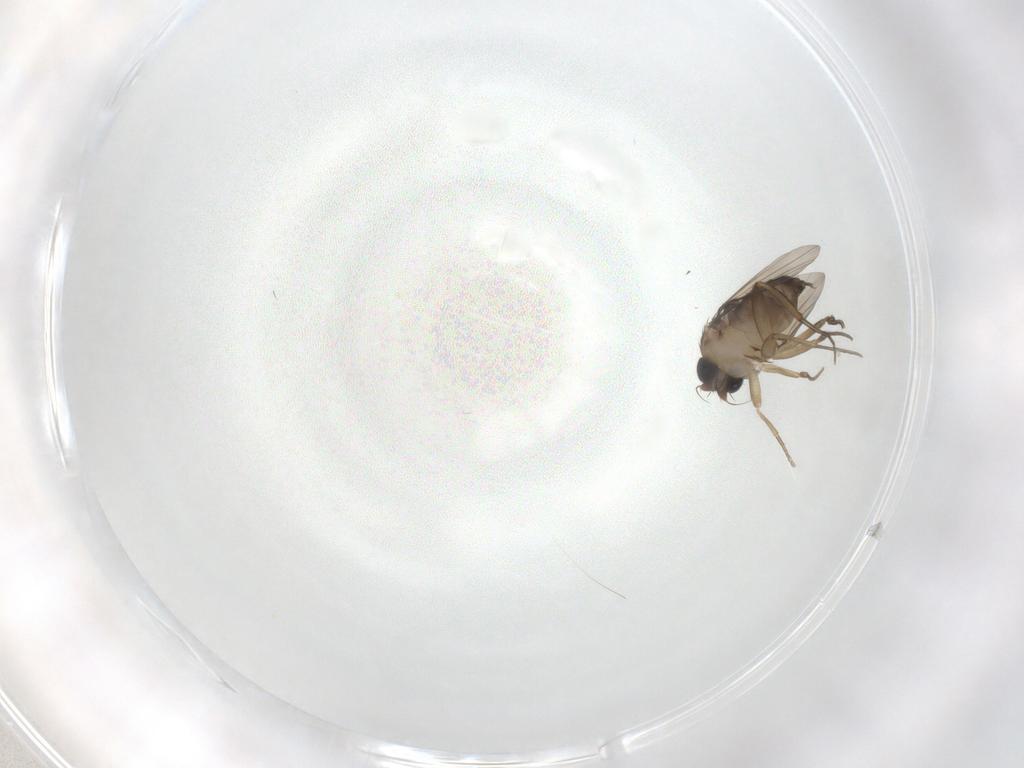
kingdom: Animalia
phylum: Arthropoda
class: Insecta
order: Diptera
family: Phoridae
